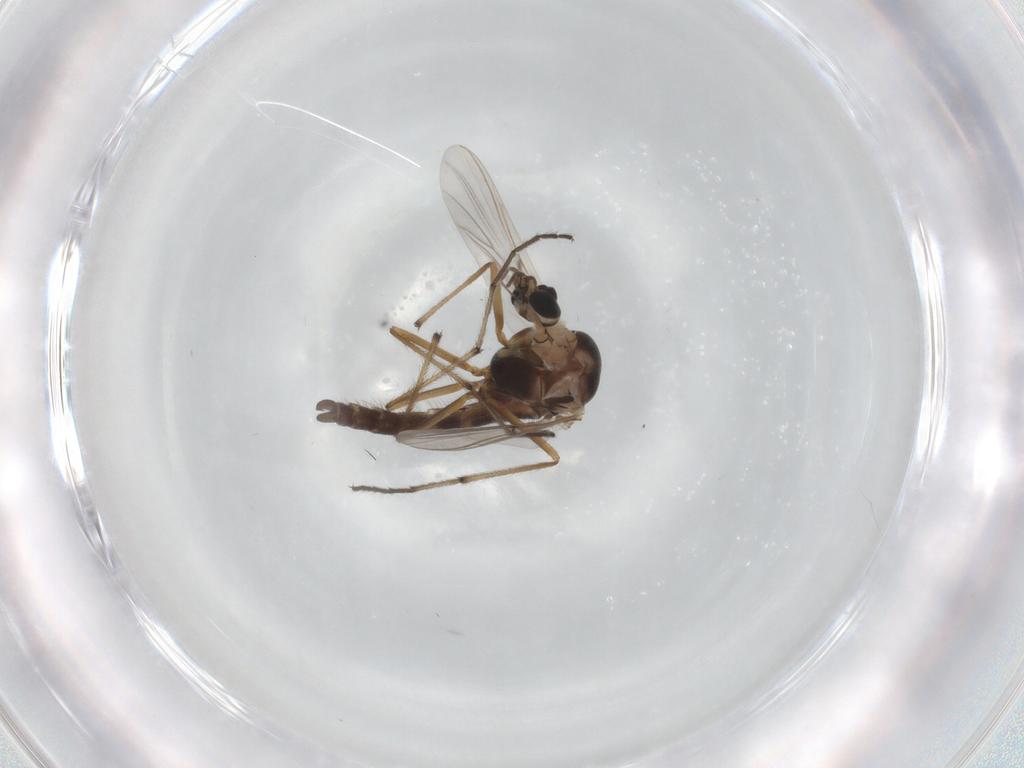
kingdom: Animalia
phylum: Arthropoda
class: Insecta
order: Diptera
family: Chironomidae
